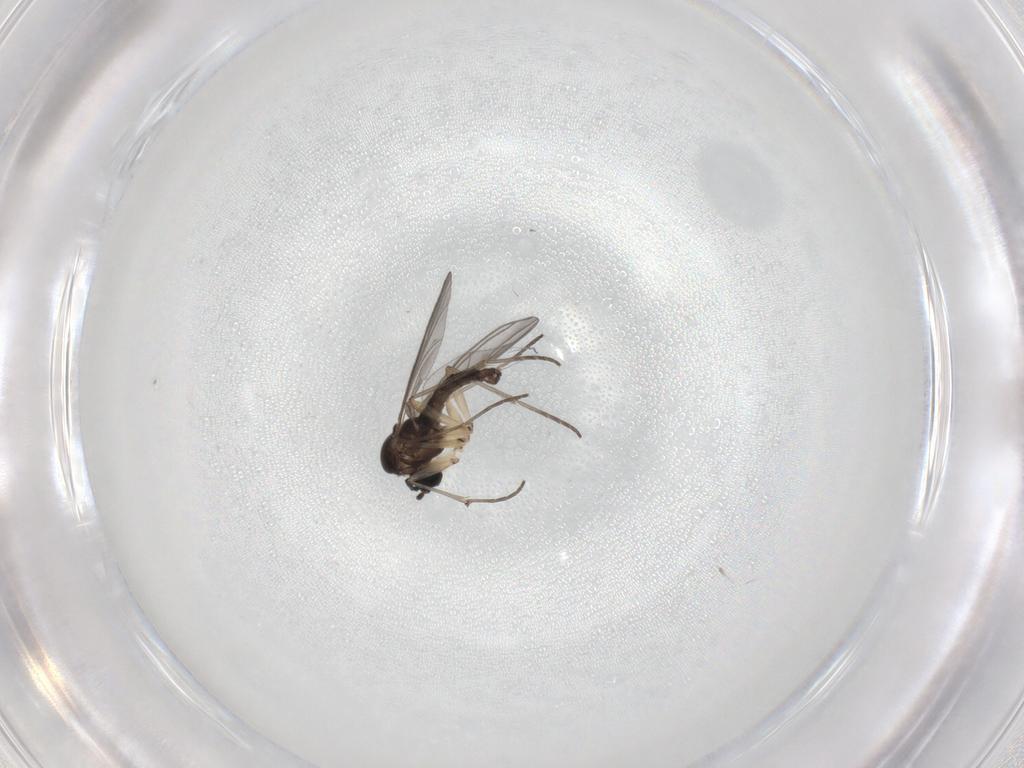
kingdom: Animalia
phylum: Arthropoda
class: Insecta
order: Diptera
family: Sciaridae
